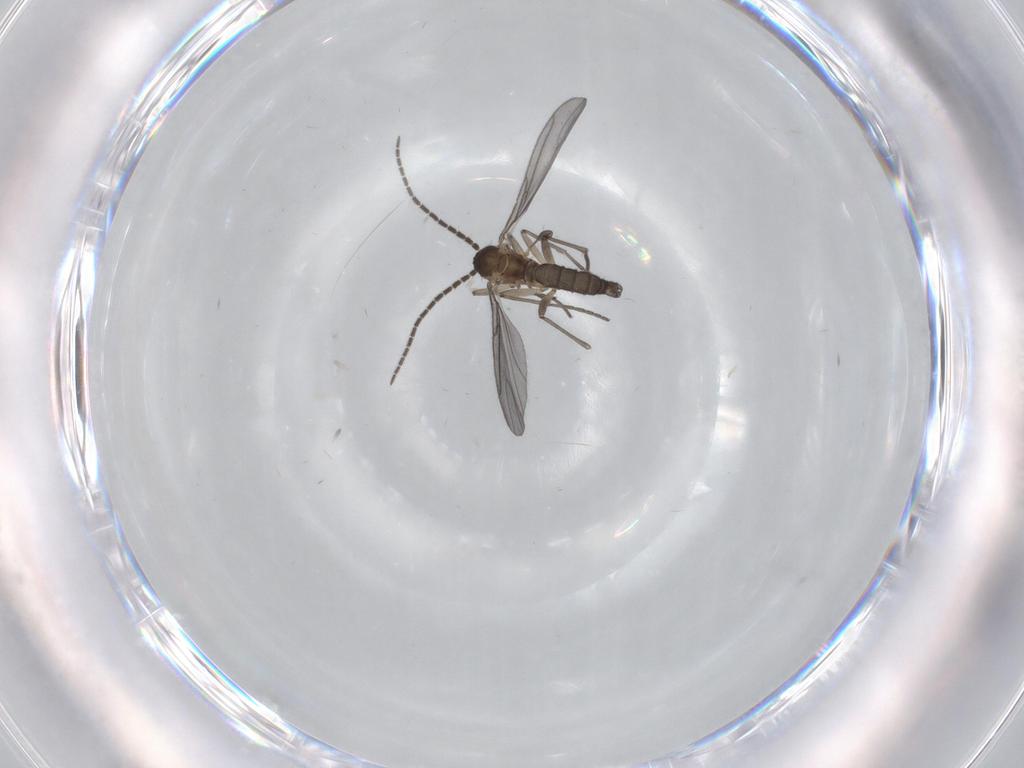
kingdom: Animalia
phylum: Arthropoda
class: Insecta
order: Diptera
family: Sciaridae
